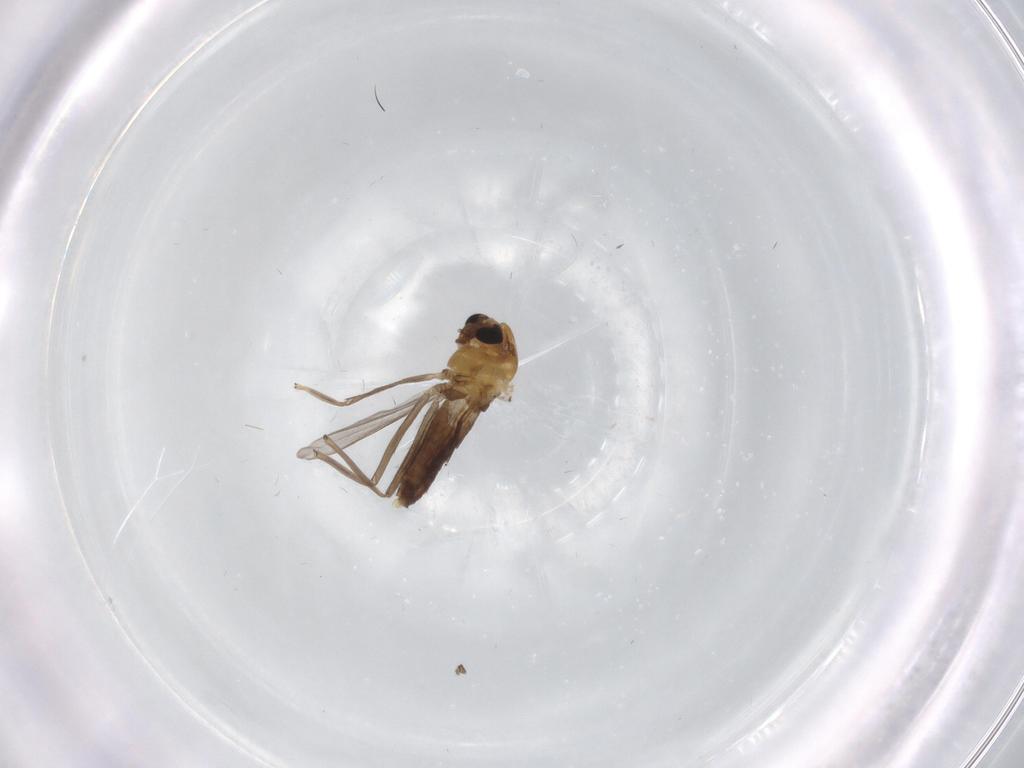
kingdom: Animalia
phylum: Arthropoda
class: Insecta
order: Diptera
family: Chironomidae
